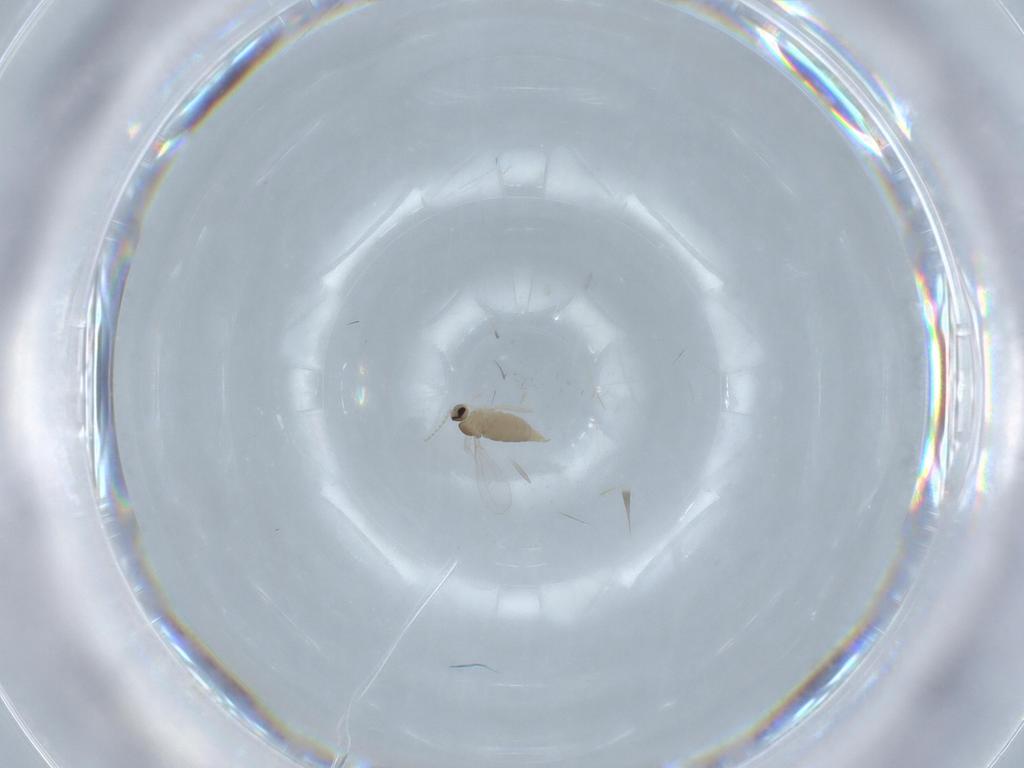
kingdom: Animalia
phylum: Arthropoda
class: Insecta
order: Diptera
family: Cecidomyiidae
